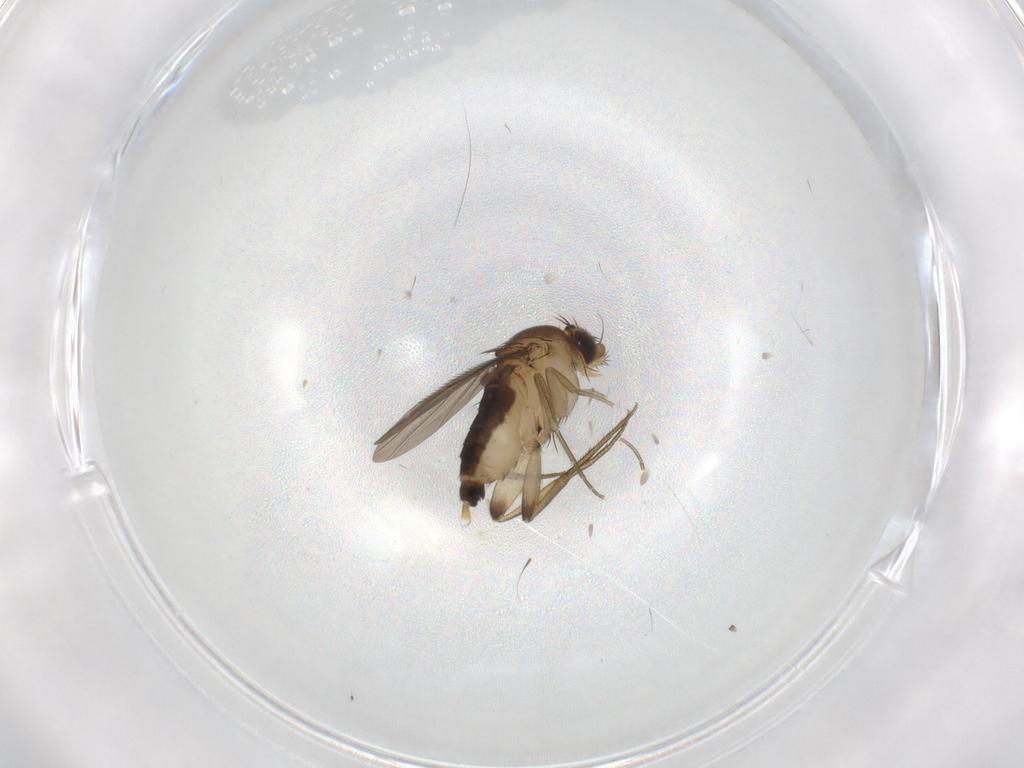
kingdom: Animalia
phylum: Arthropoda
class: Insecta
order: Diptera
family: Phoridae
